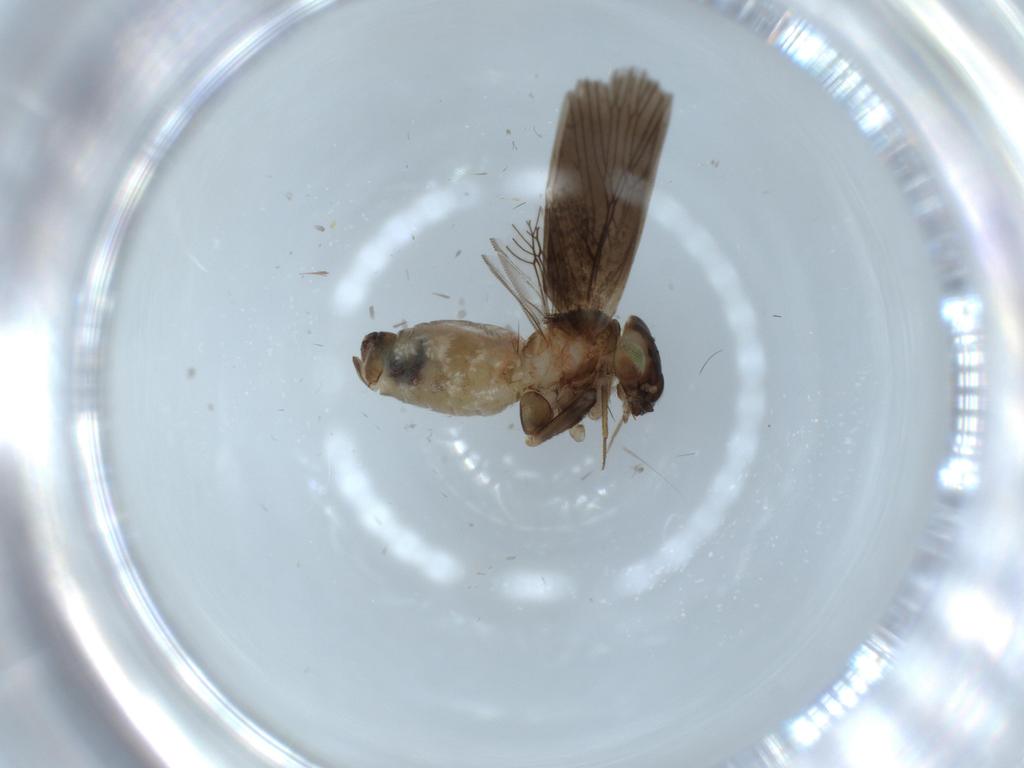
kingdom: Animalia
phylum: Arthropoda
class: Insecta
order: Psocodea
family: Lepidopsocidae
